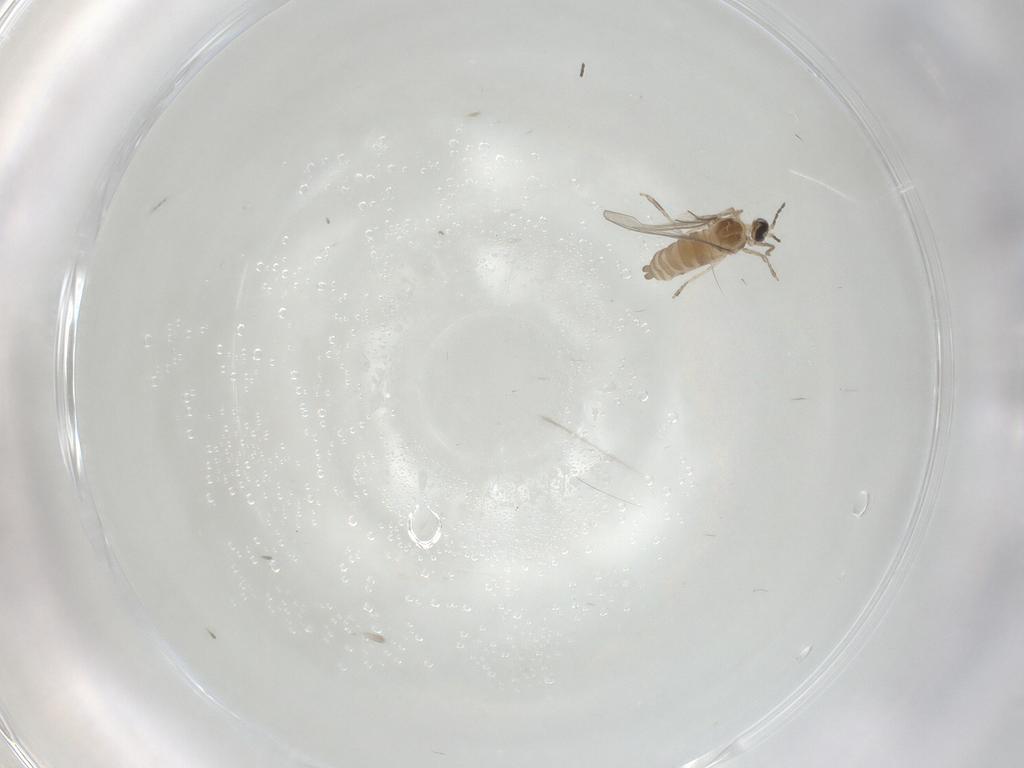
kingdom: Animalia
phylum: Arthropoda
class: Insecta
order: Diptera
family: Cecidomyiidae
